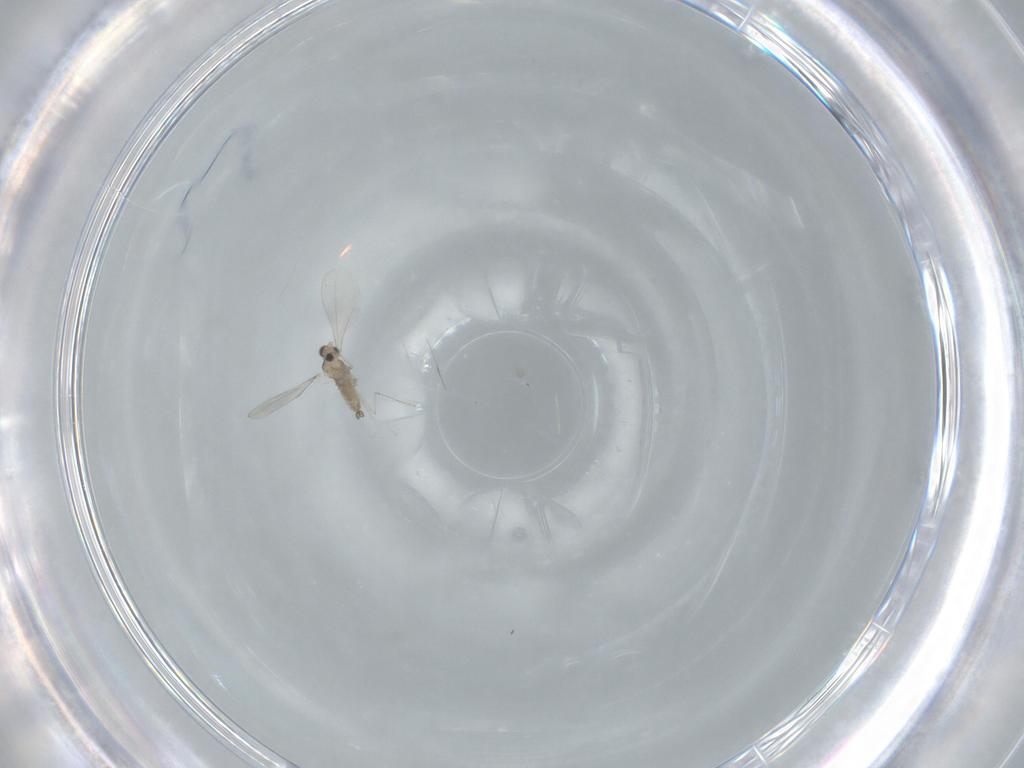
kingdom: Animalia
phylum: Arthropoda
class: Insecta
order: Diptera
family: Cecidomyiidae
